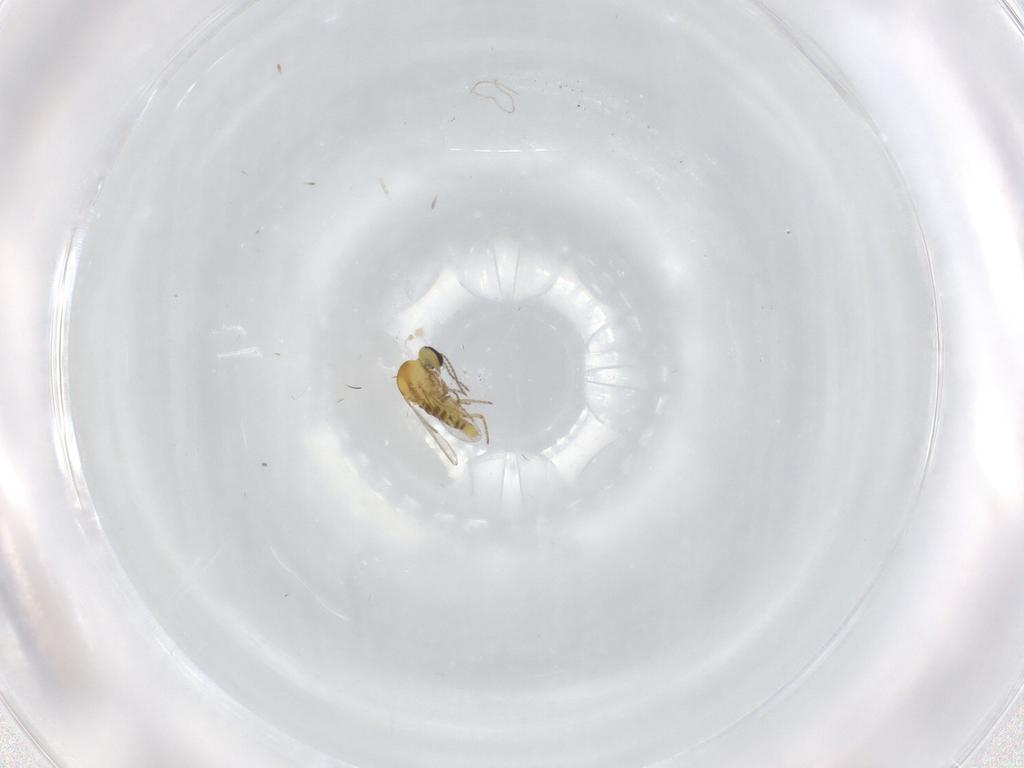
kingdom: Animalia
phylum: Arthropoda
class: Insecta
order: Diptera
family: Ceratopogonidae
